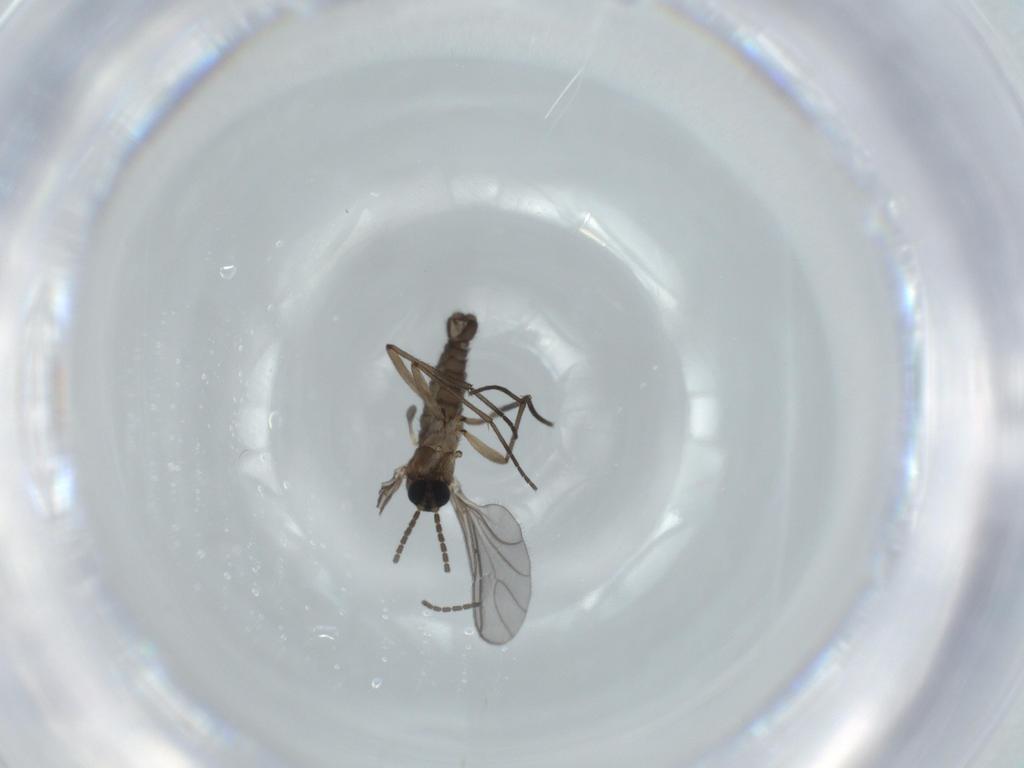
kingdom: Animalia
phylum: Arthropoda
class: Insecta
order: Diptera
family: Sciaridae
